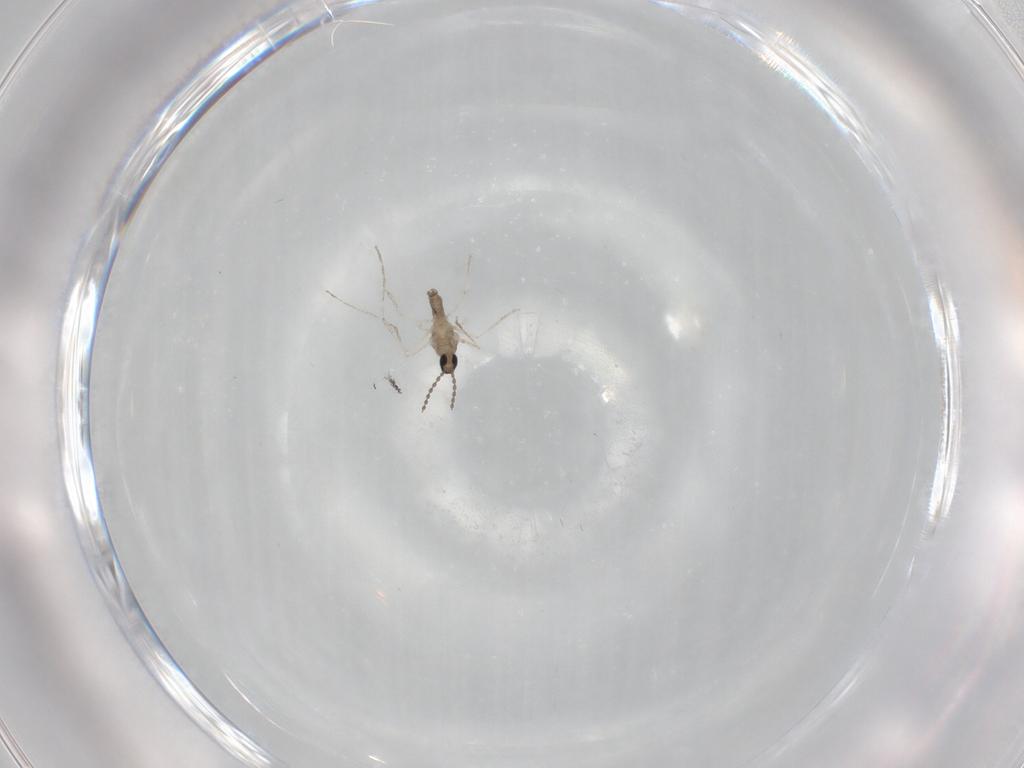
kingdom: Animalia
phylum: Arthropoda
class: Insecta
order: Diptera
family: Cecidomyiidae
